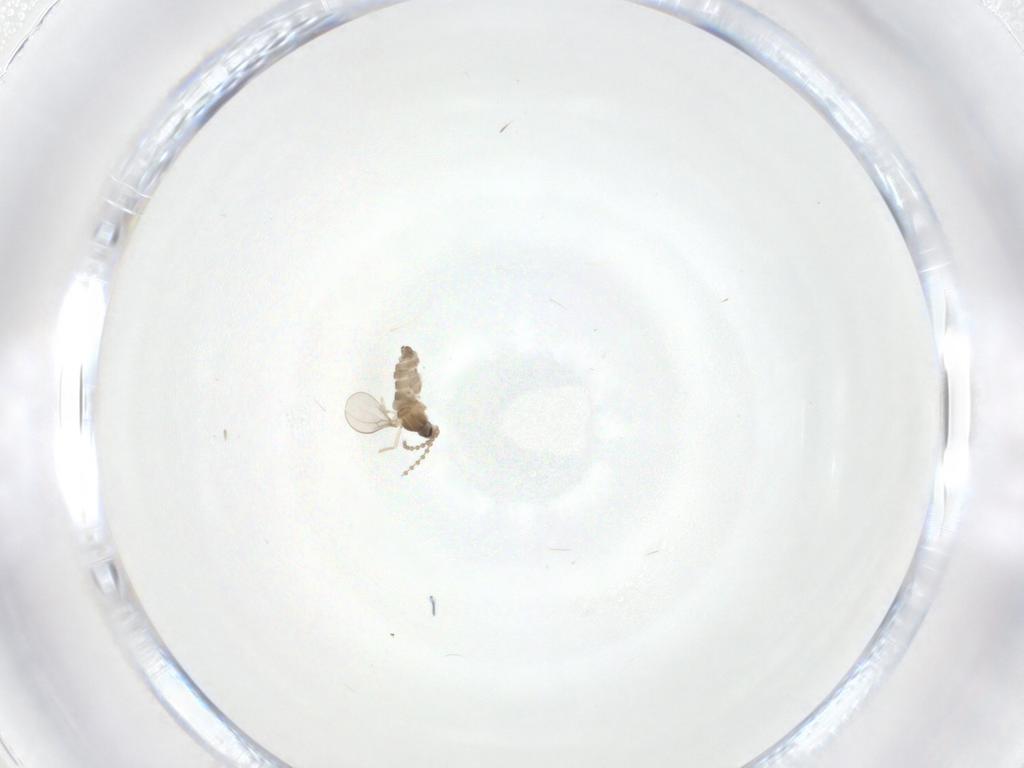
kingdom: Animalia
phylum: Arthropoda
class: Insecta
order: Diptera
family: Cecidomyiidae
